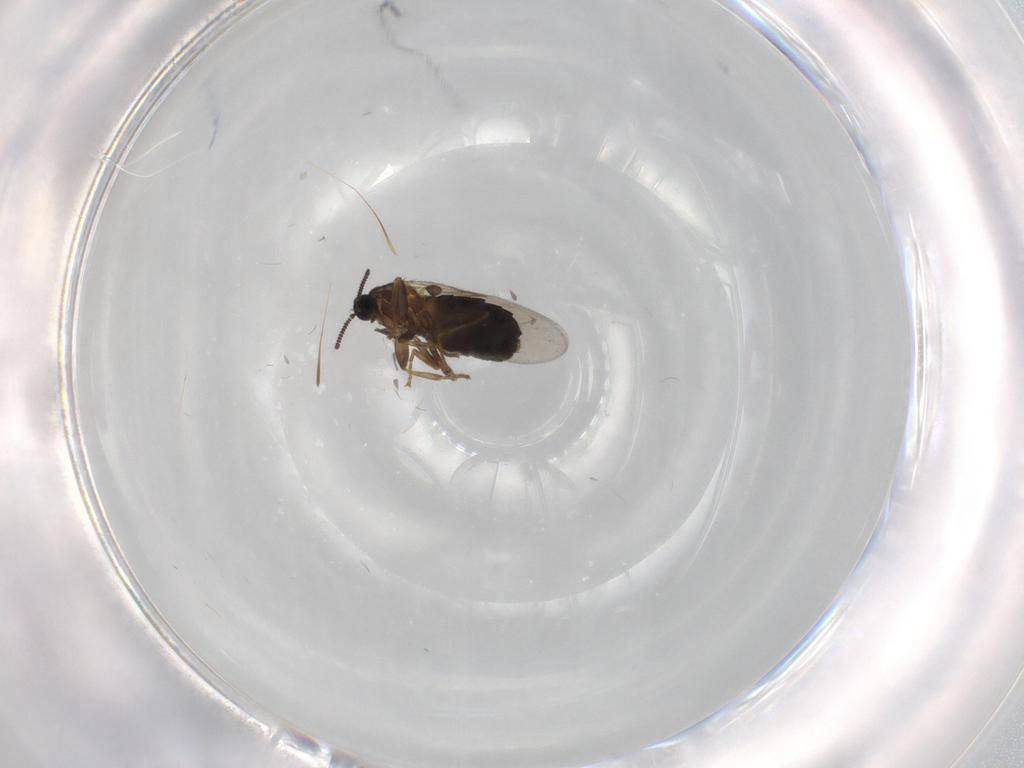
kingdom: Animalia
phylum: Arthropoda
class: Insecta
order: Diptera
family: Scatopsidae
